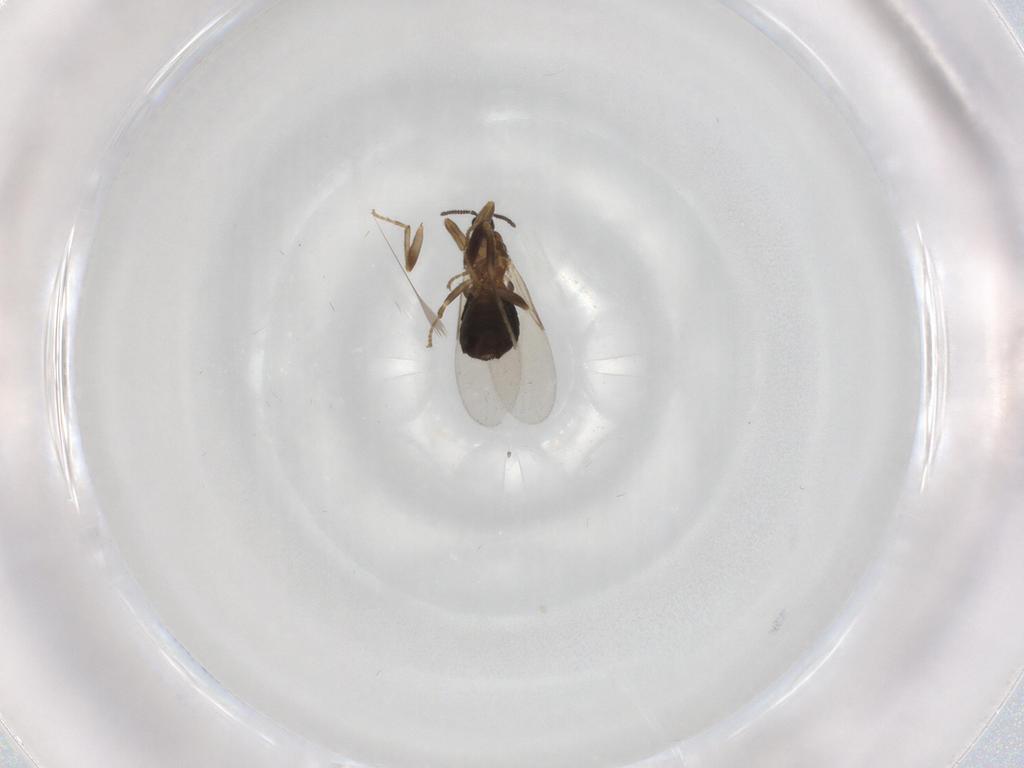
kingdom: Animalia
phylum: Arthropoda
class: Insecta
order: Diptera
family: Scatopsidae
